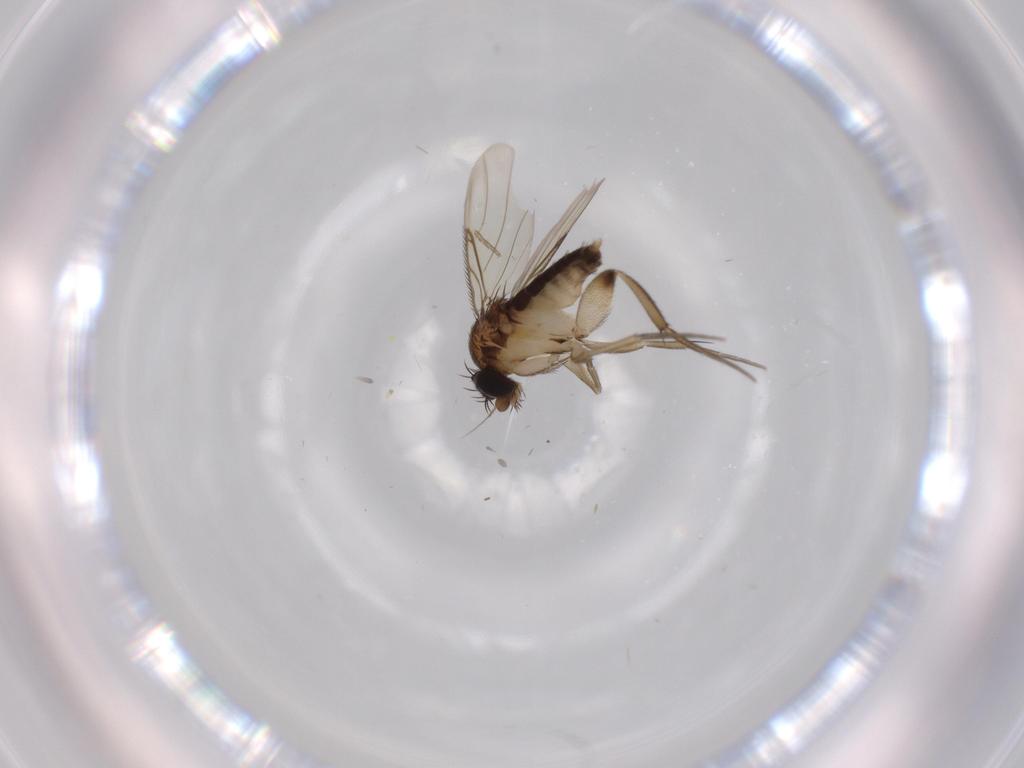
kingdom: Animalia
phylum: Arthropoda
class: Insecta
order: Diptera
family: Phoridae
